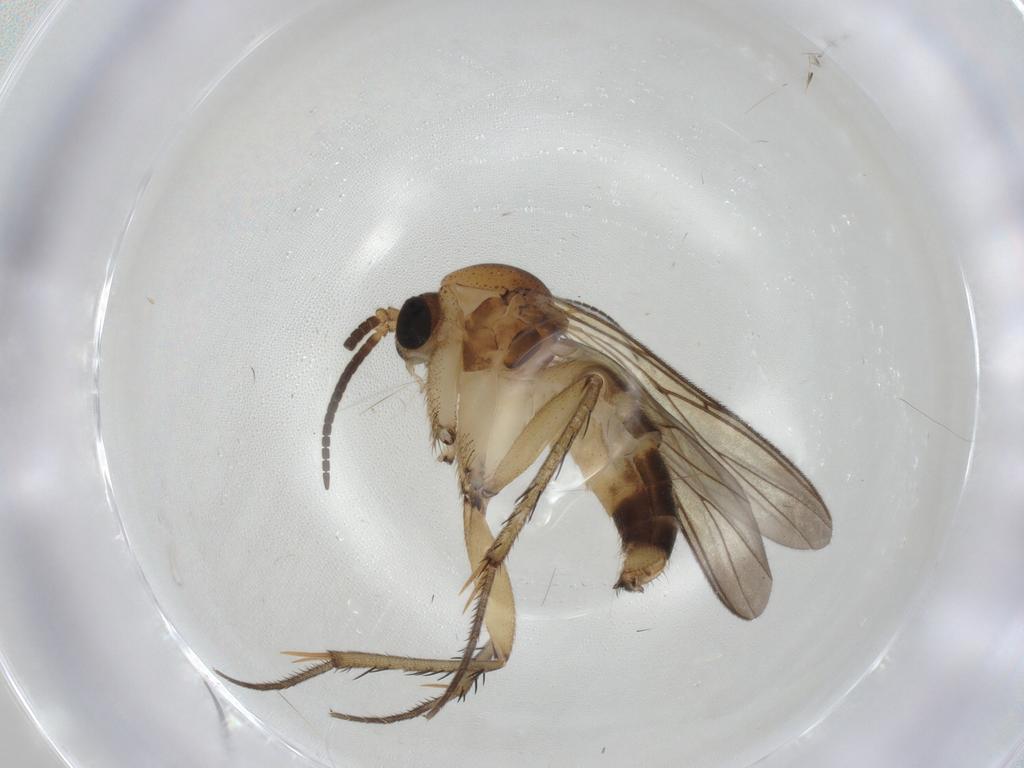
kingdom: Animalia
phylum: Arthropoda
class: Insecta
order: Diptera
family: Mycetophilidae
